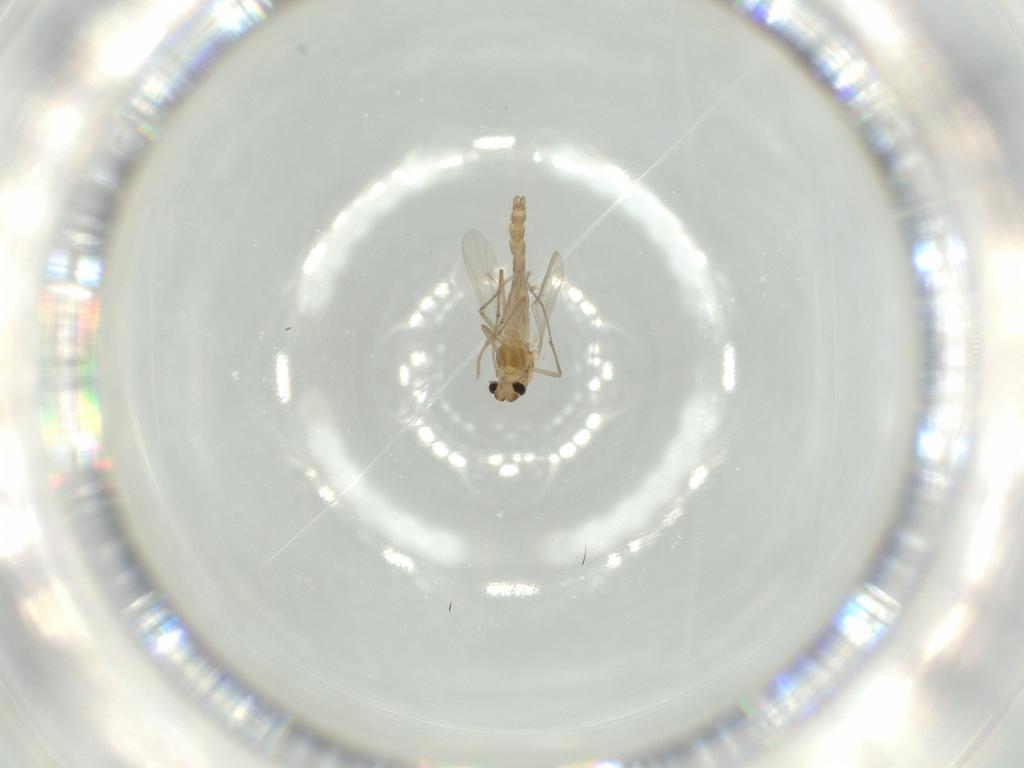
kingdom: Animalia
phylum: Arthropoda
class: Insecta
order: Diptera
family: Chironomidae
